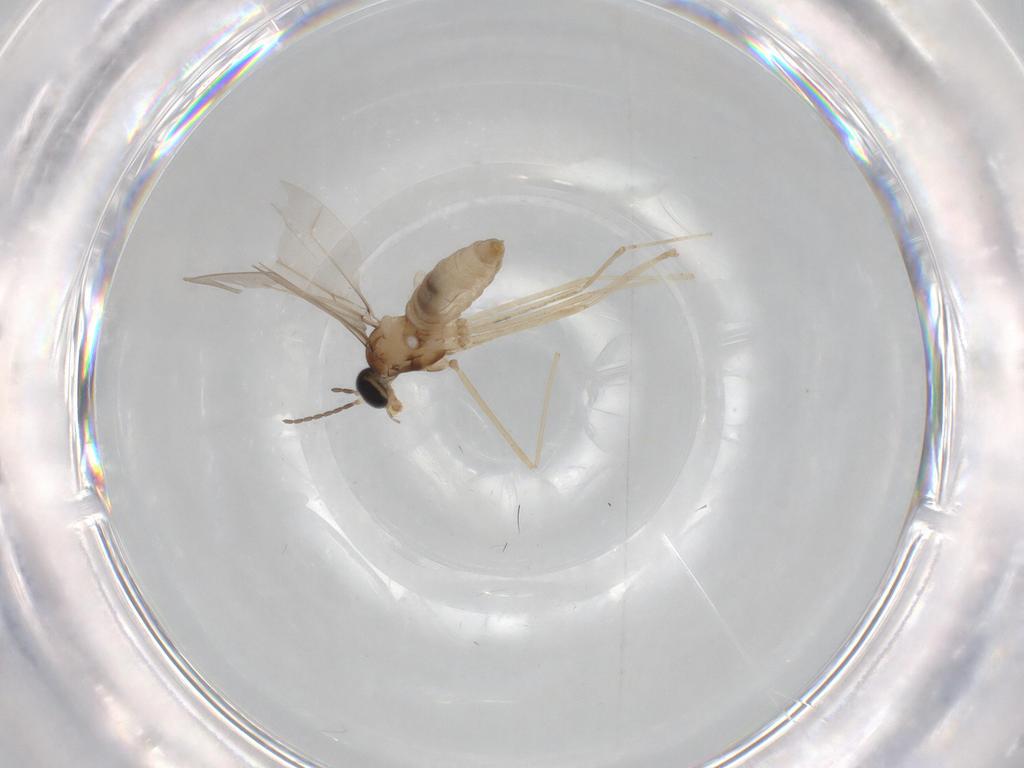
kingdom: Animalia
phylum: Arthropoda
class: Insecta
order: Diptera
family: Cecidomyiidae
